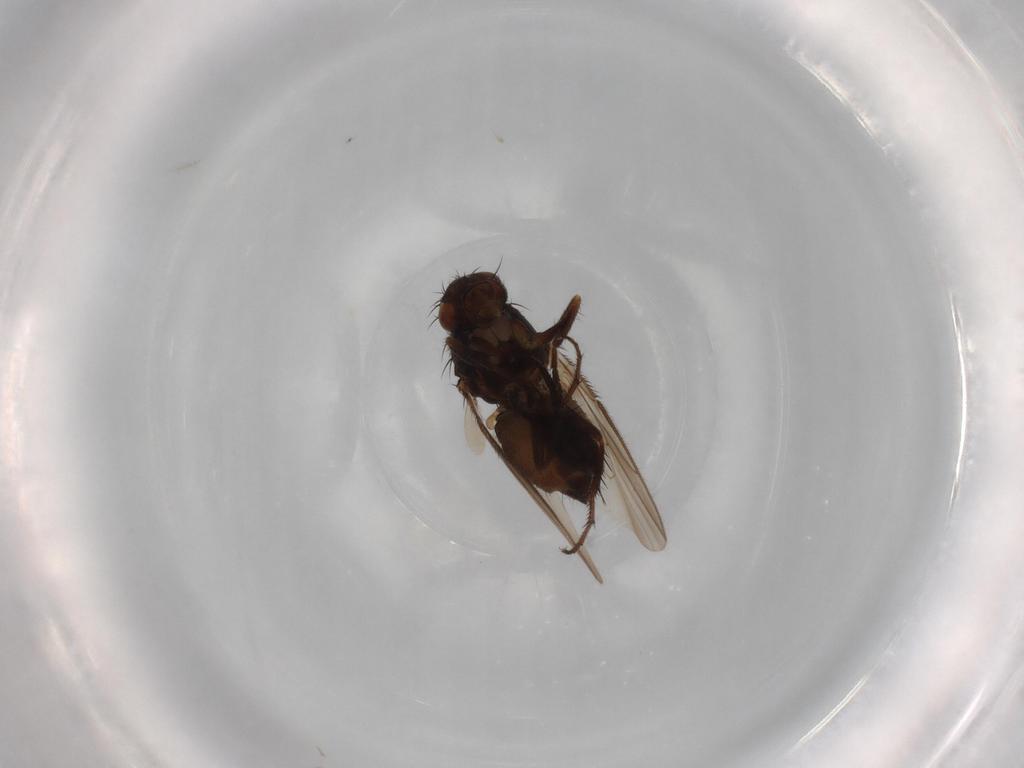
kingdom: Animalia
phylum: Arthropoda
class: Insecta
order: Diptera
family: Sphaeroceridae
